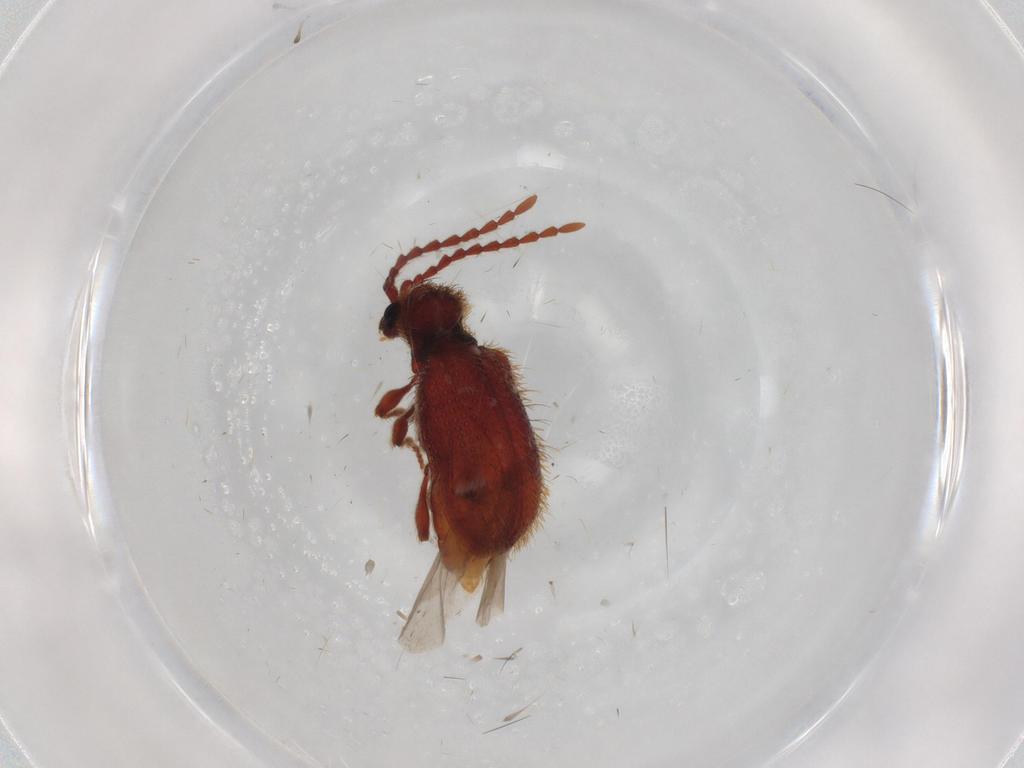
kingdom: Animalia
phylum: Arthropoda
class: Insecta
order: Coleoptera
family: Ptinidae
